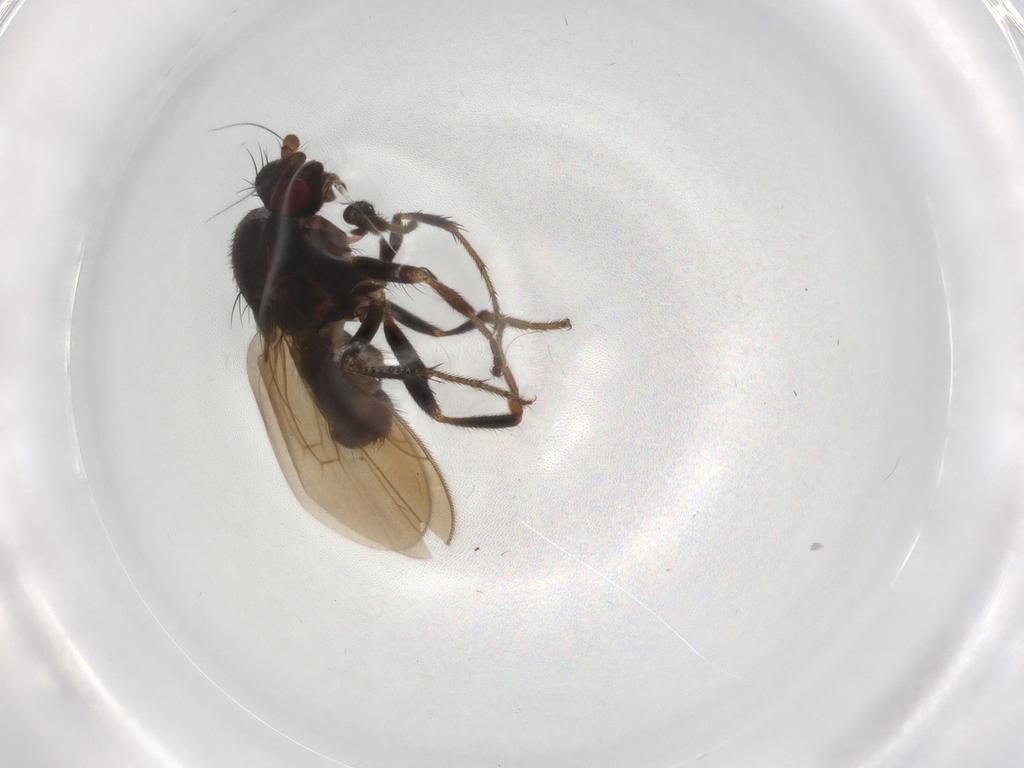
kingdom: Animalia
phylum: Arthropoda
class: Insecta
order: Diptera
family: Sphaeroceridae
